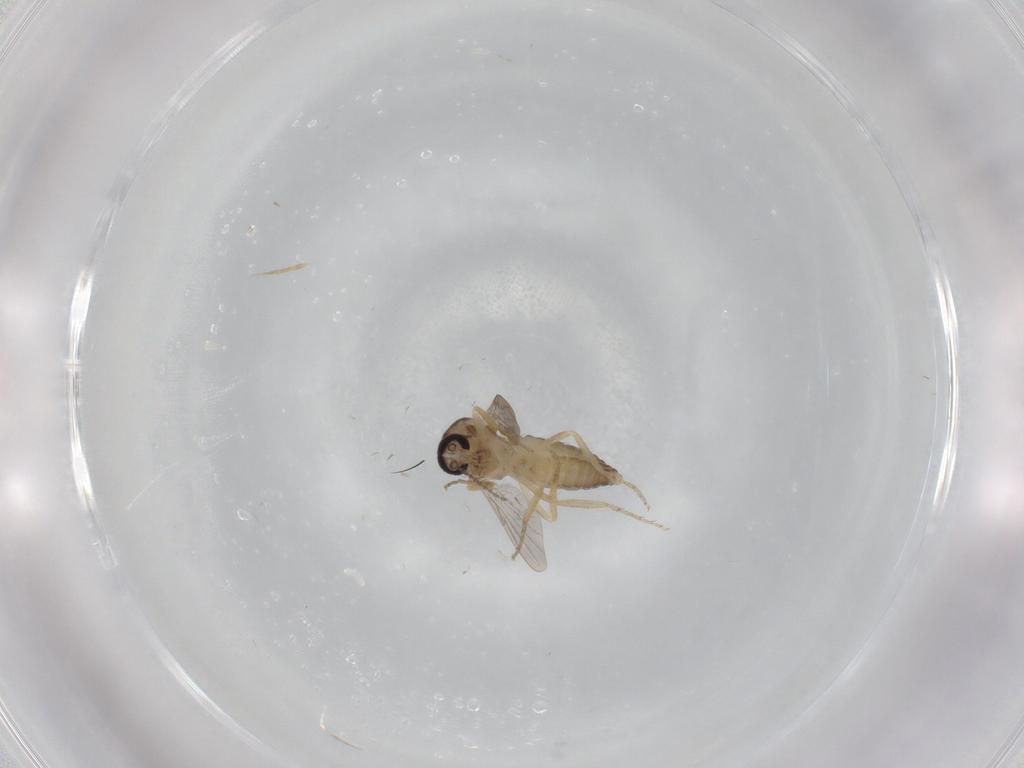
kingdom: Animalia
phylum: Arthropoda
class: Insecta
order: Diptera
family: Ceratopogonidae
